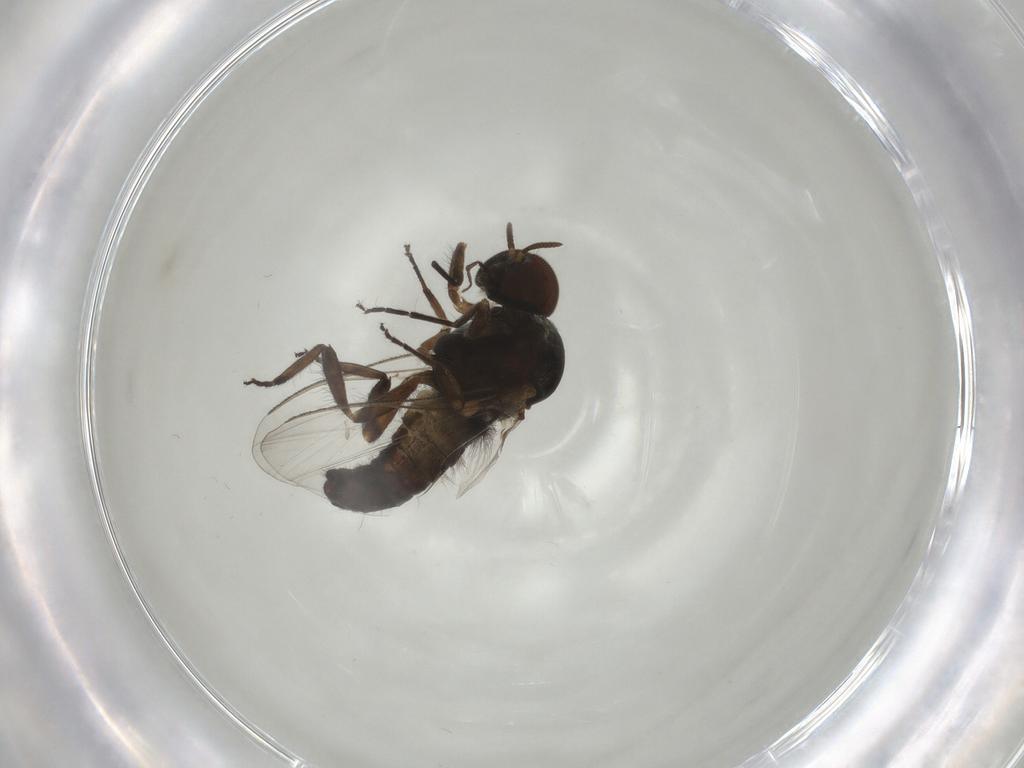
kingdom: Animalia
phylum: Arthropoda
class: Insecta
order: Diptera
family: Simuliidae
